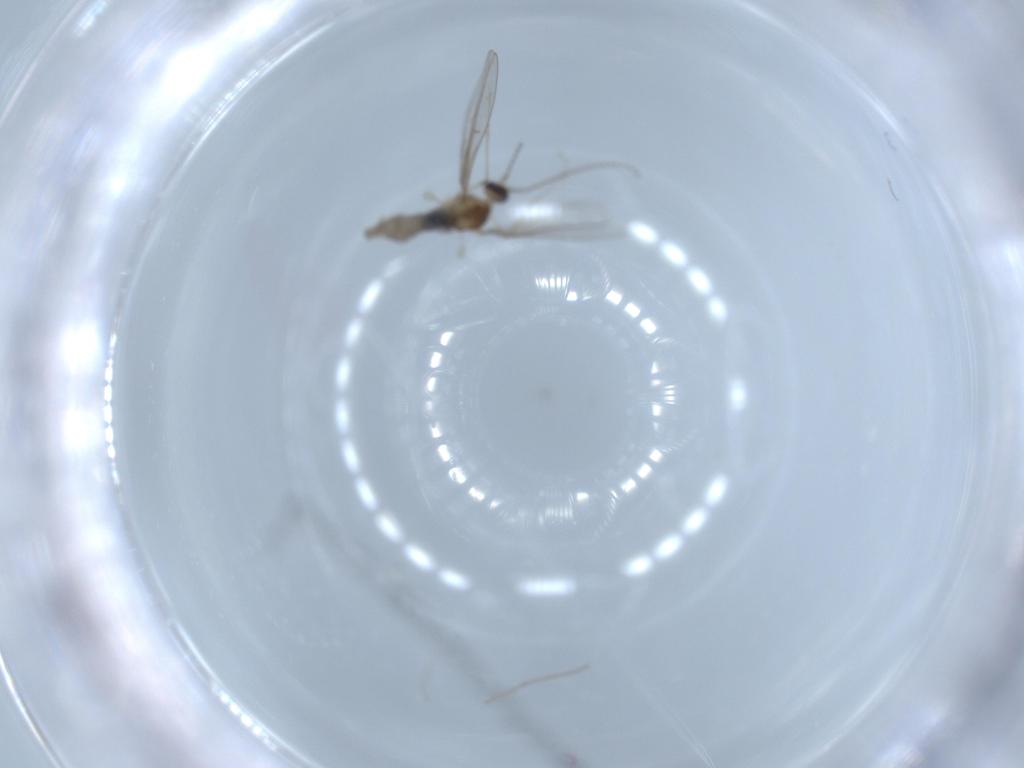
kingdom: Animalia
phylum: Arthropoda
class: Insecta
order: Diptera
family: Cecidomyiidae
